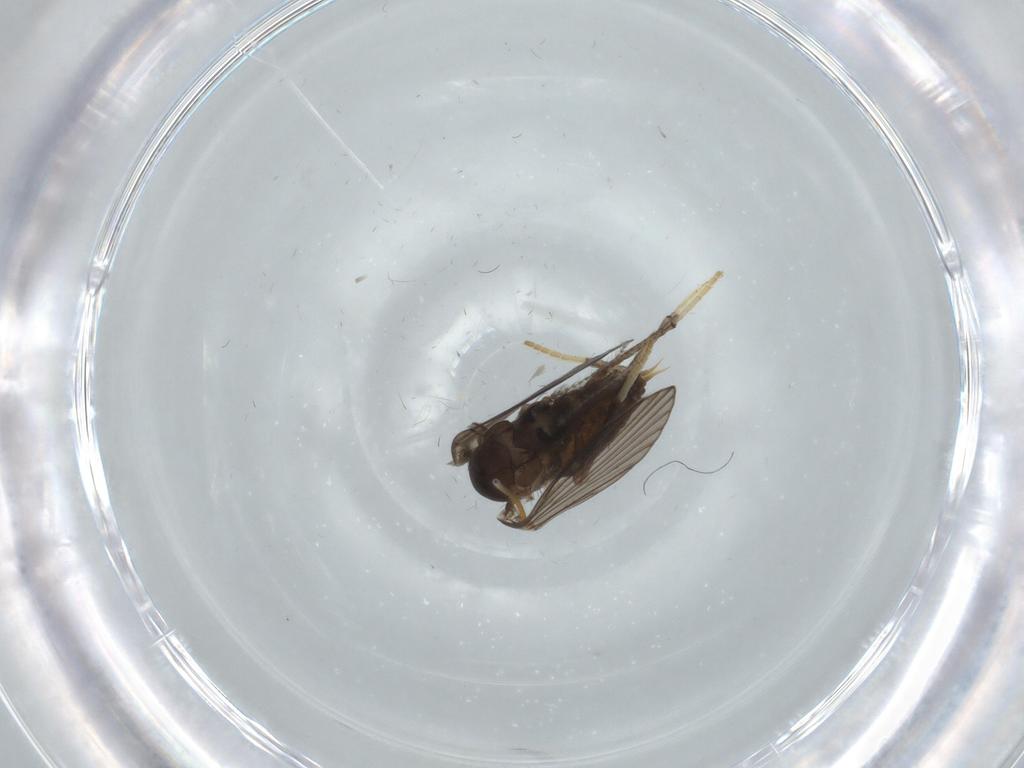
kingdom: Animalia
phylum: Arthropoda
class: Insecta
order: Diptera
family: Psychodidae
